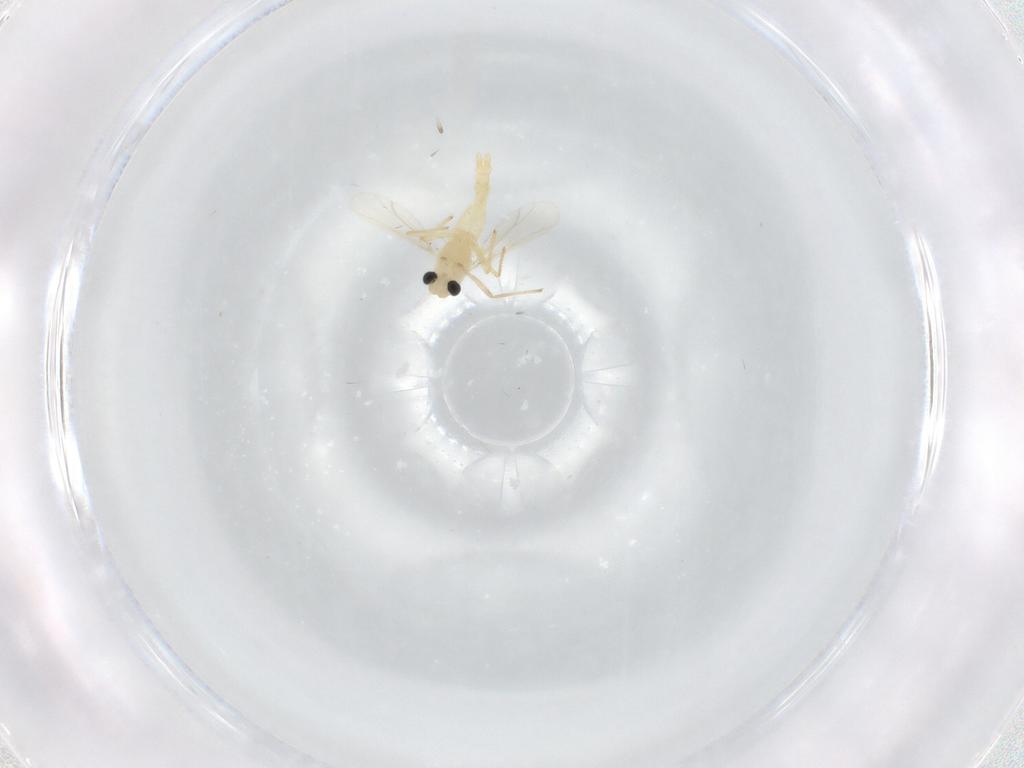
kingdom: Animalia
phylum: Arthropoda
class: Insecta
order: Diptera
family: Chironomidae
